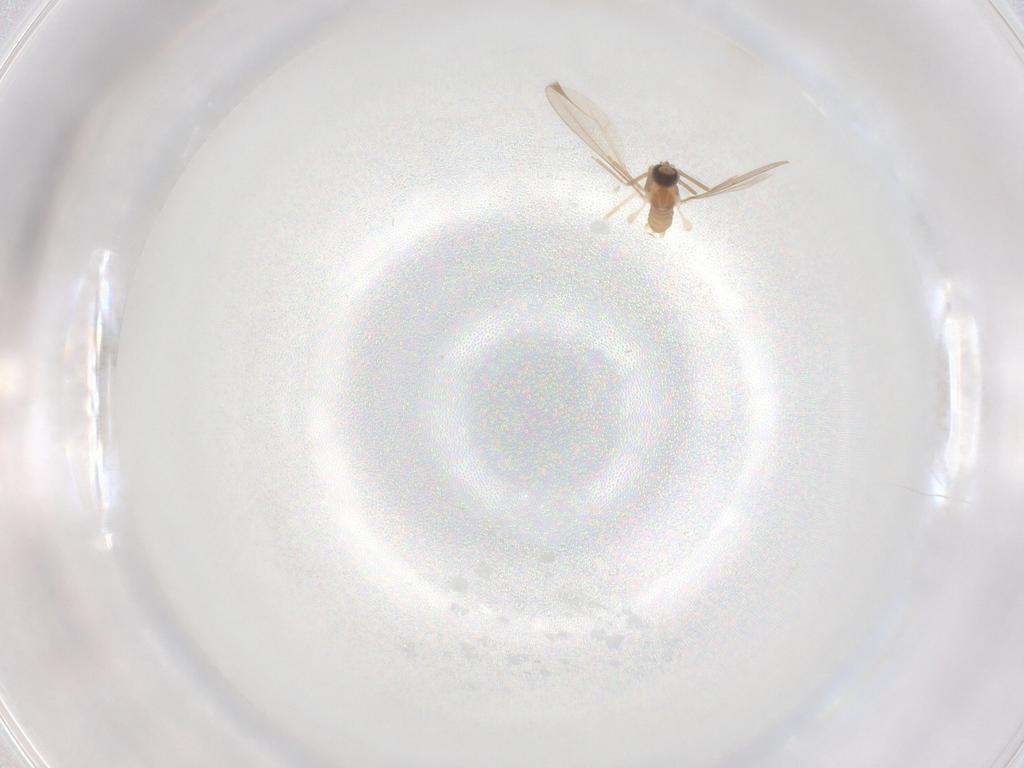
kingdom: Animalia
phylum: Arthropoda
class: Insecta
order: Diptera
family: Cecidomyiidae
